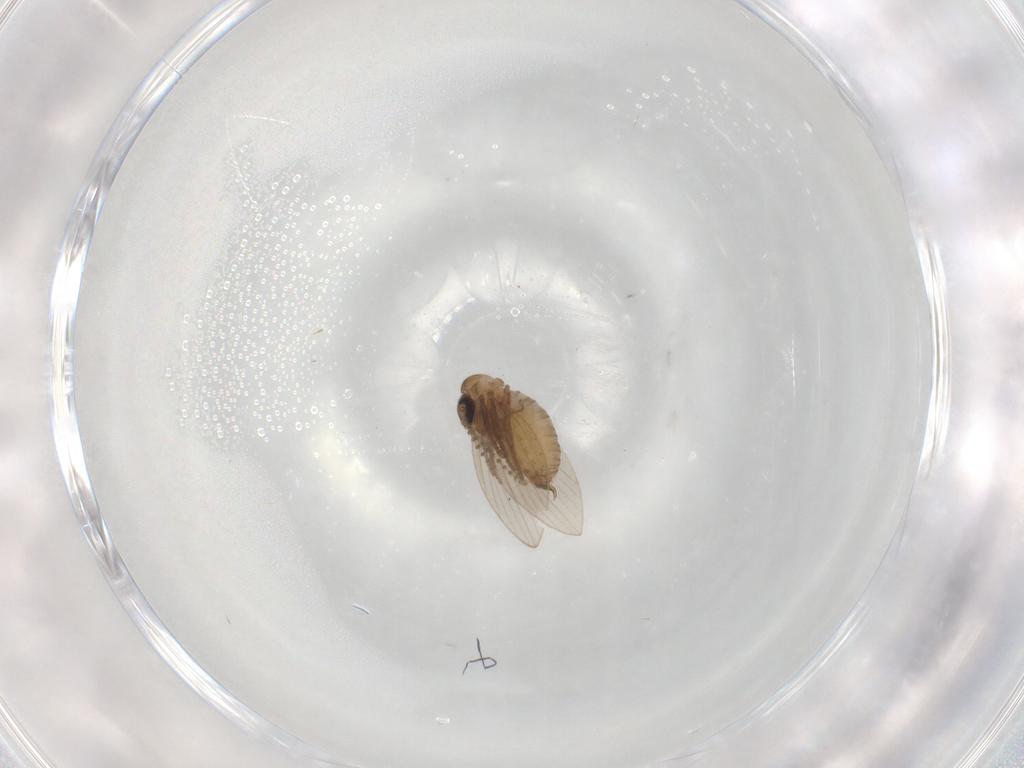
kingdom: Animalia
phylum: Arthropoda
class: Insecta
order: Diptera
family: Psychodidae
